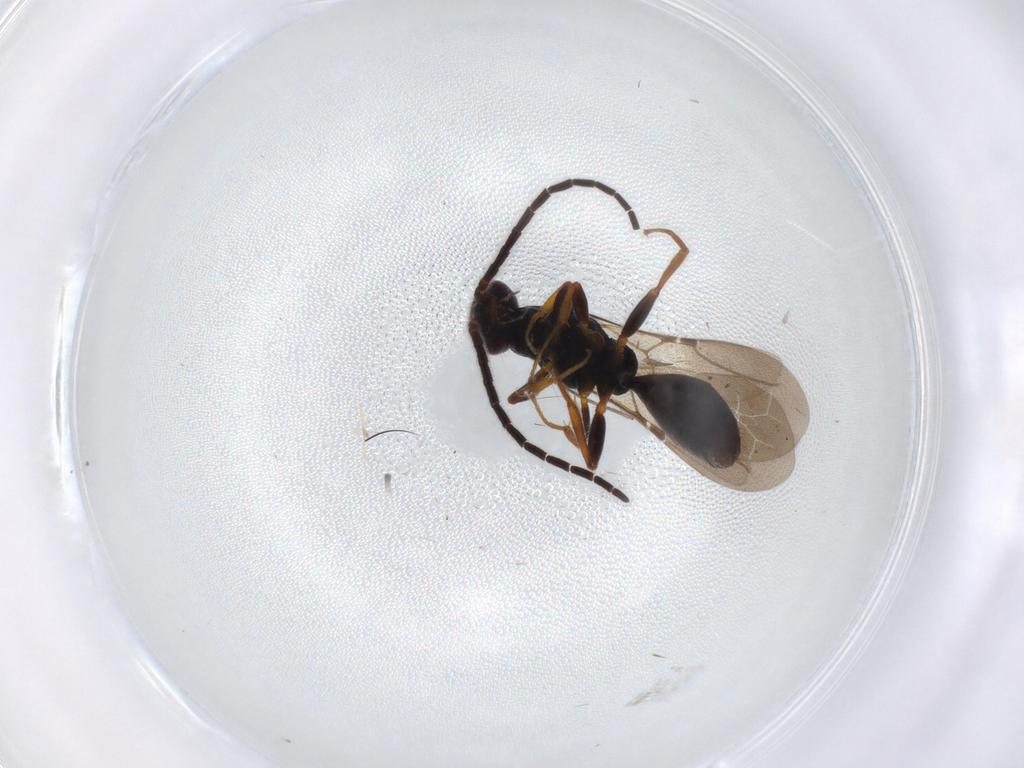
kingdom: Animalia
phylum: Arthropoda
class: Insecta
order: Hymenoptera
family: Bethylidae
